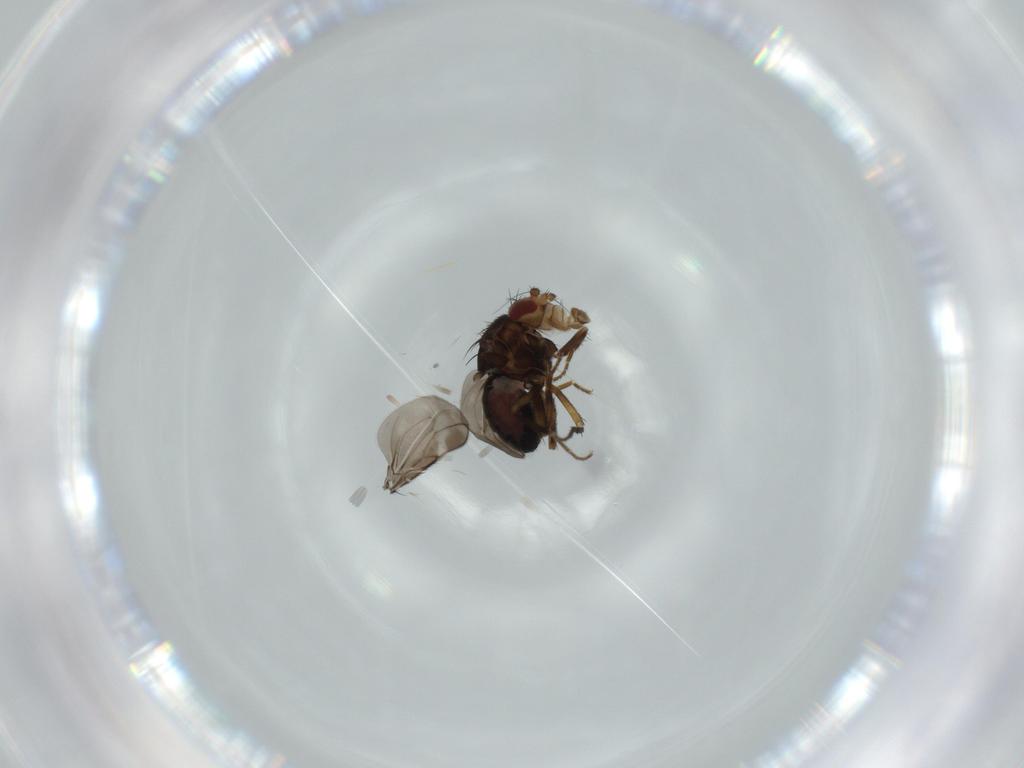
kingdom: Animalia
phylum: Arthropoda
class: Insecta
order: Diptera
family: Sphaeroceridae
